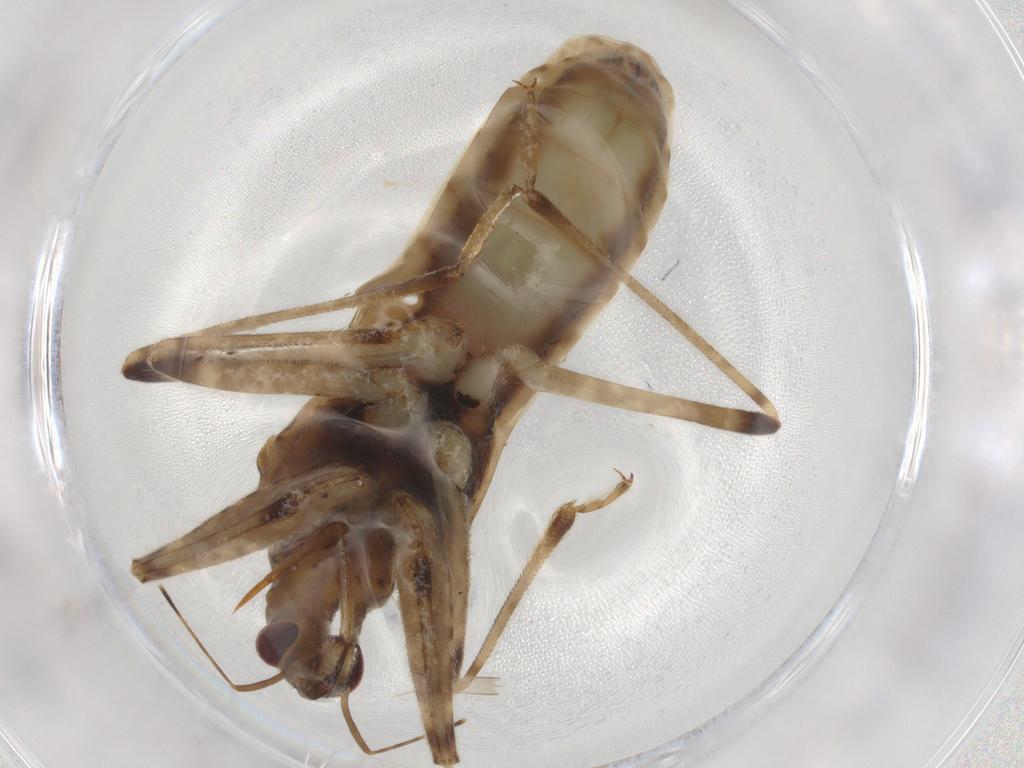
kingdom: Animalia
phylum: Arthropoda
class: Insecta
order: Hemiptera
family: Nabidae
